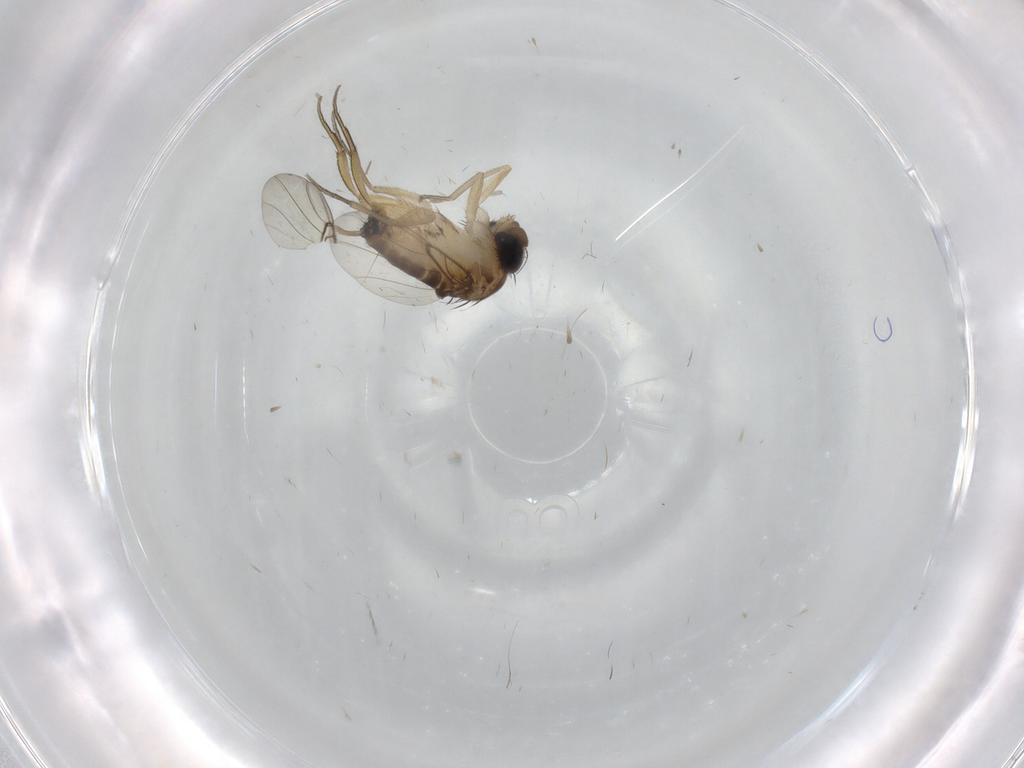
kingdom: Animalia
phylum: Arthropoda
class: Insecta
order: Diptera
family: Phoridae
